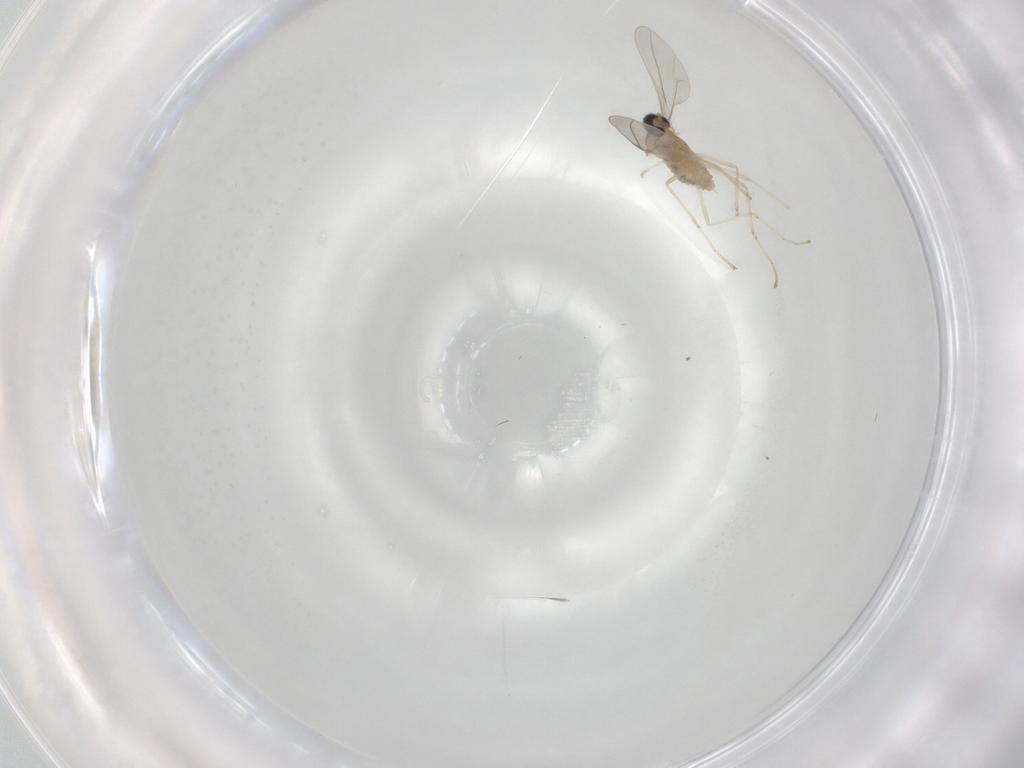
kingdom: Animalia
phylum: Arthropoda
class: Insecta
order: Diptera
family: Cecidomyiidae
